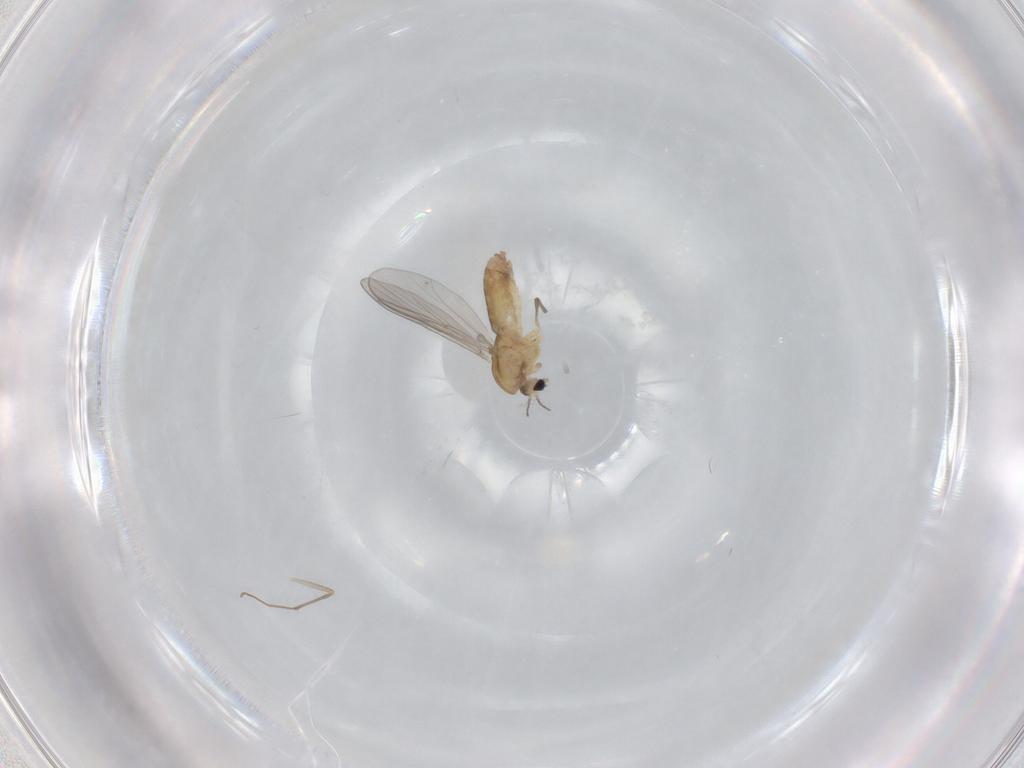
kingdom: Animalia
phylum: Arthropoda
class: Insecta
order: Diptera
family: Chironomidae
